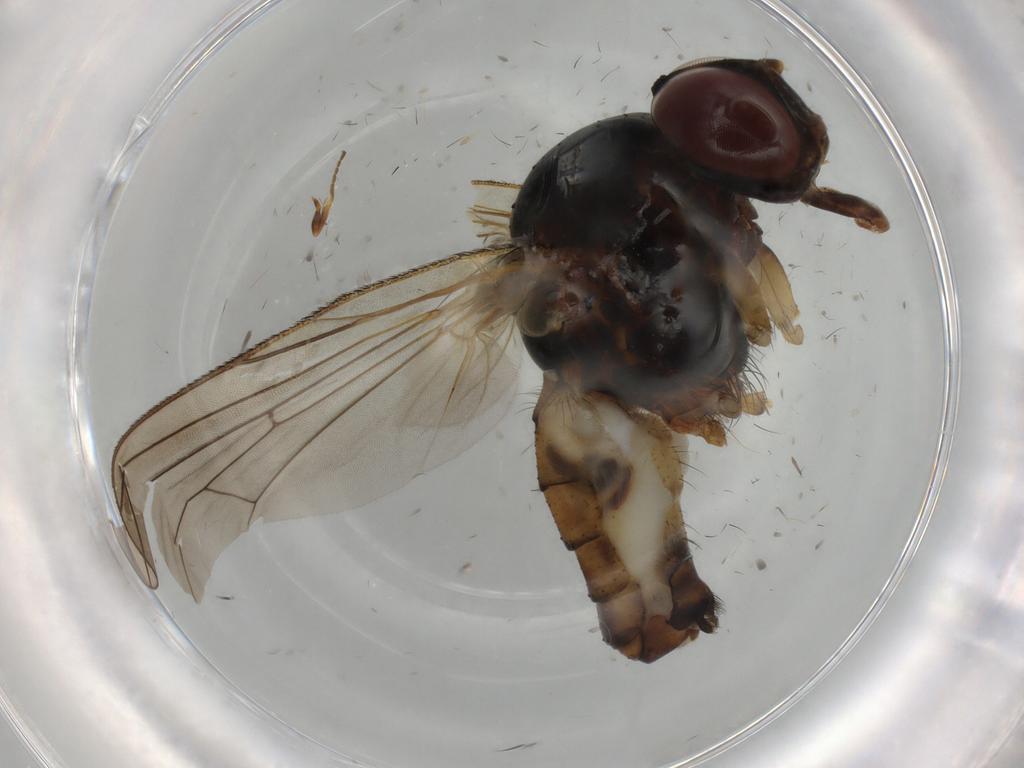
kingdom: Animalia
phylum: Arthropoda
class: Insecta
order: Diptera
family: Mycetophilidae
